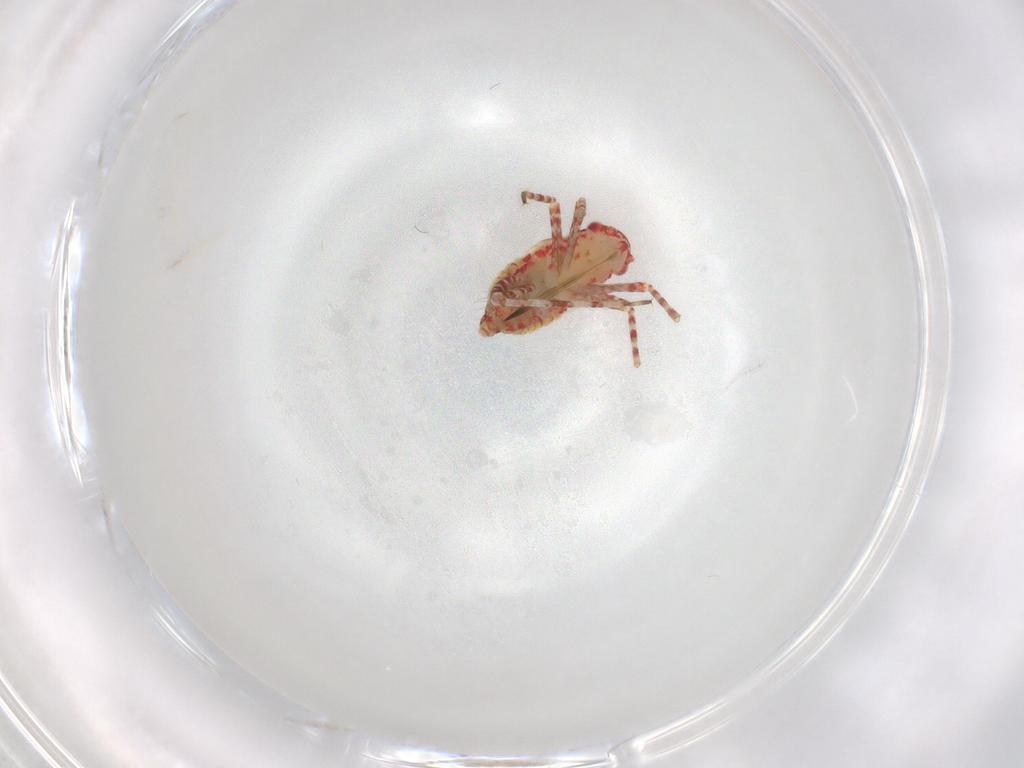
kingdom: Animalia
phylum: Arthropoda
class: Insecta
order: Hemiptera
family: Miridae
